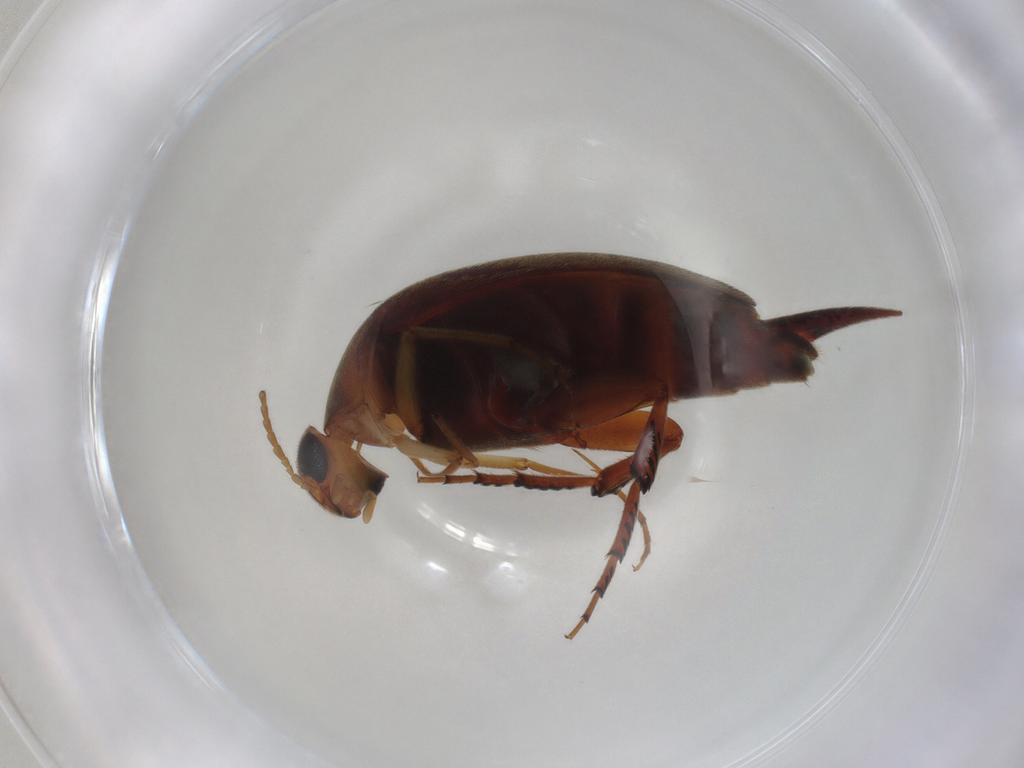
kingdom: Animalia
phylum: Arthropoda
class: Insecta
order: Coleoptera
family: Mordellidae
